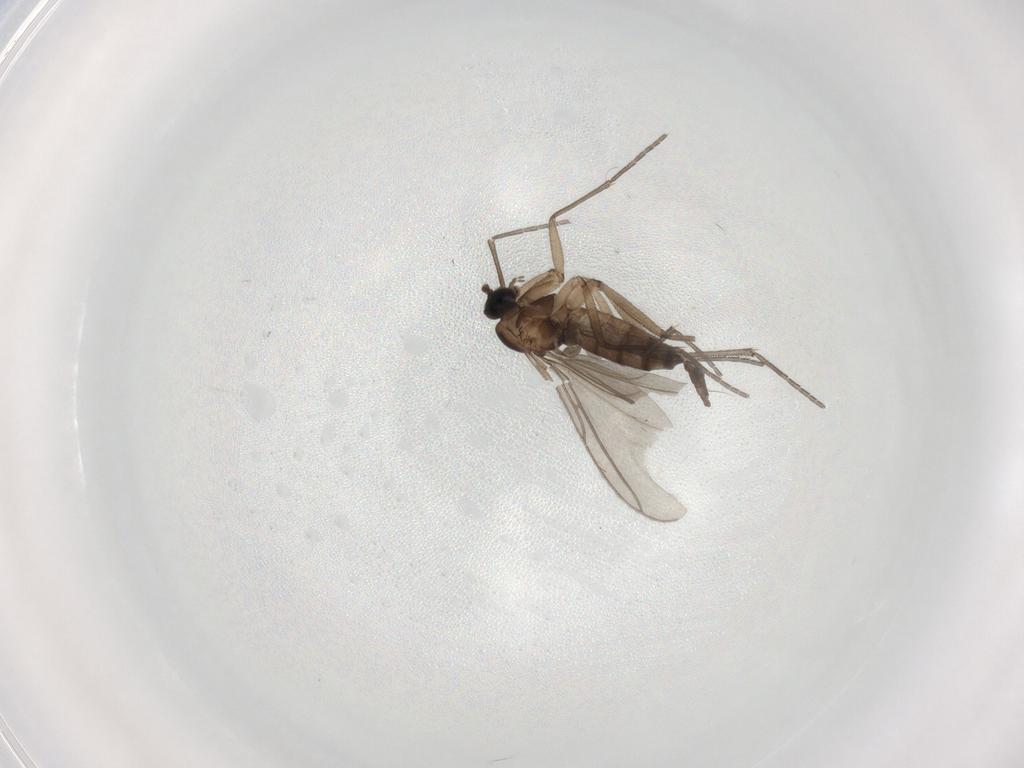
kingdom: Animalia
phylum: Arthropoda
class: Insecta
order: Diptera
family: Sciaridae
